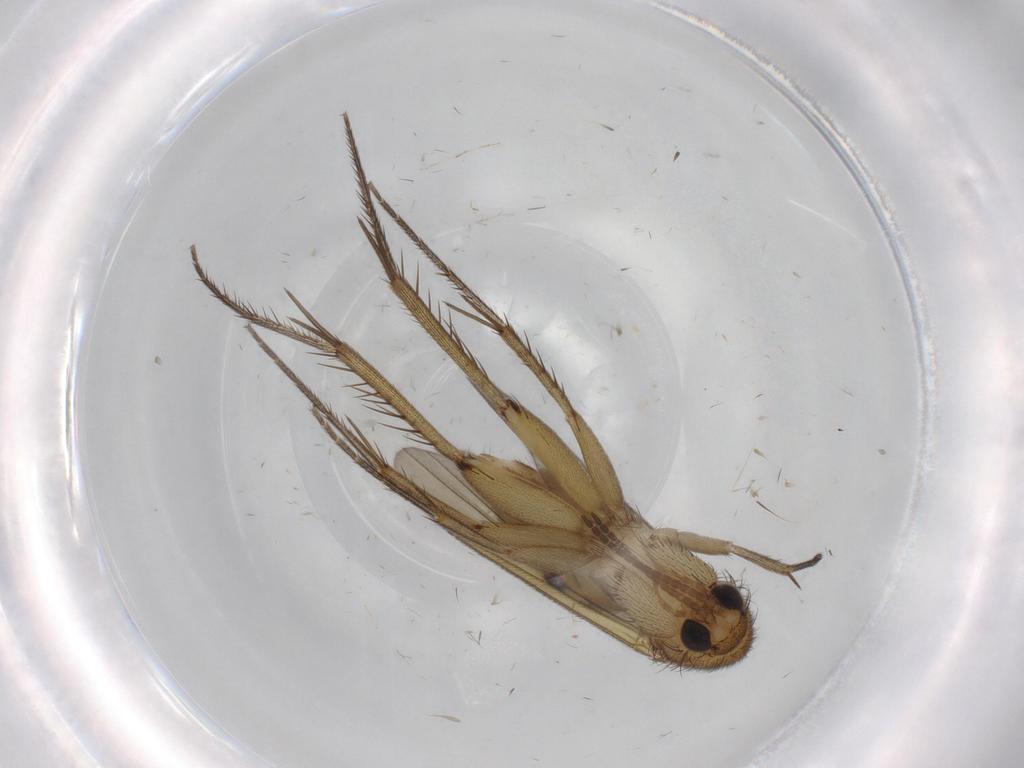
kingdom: Animalia
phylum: Arthropoda
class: Insecta
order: Diptera
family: Mycetophilidae
